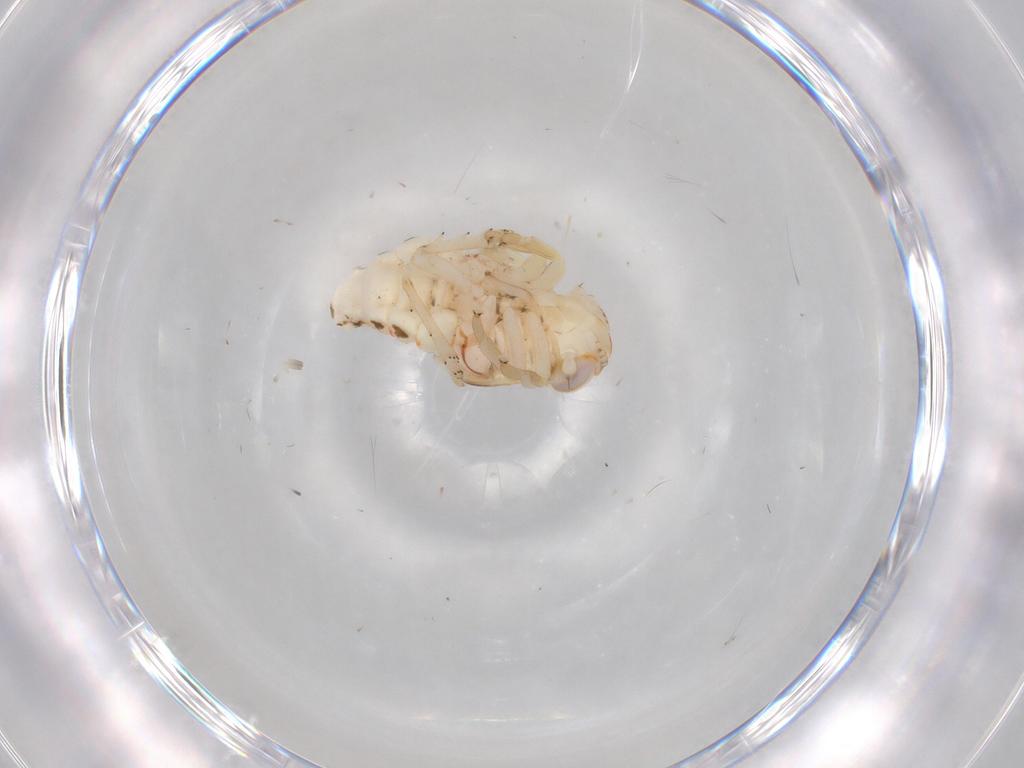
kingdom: Animalia
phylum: Arthropoda
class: Insecta
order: Hemiptera
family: Nogodinidae
